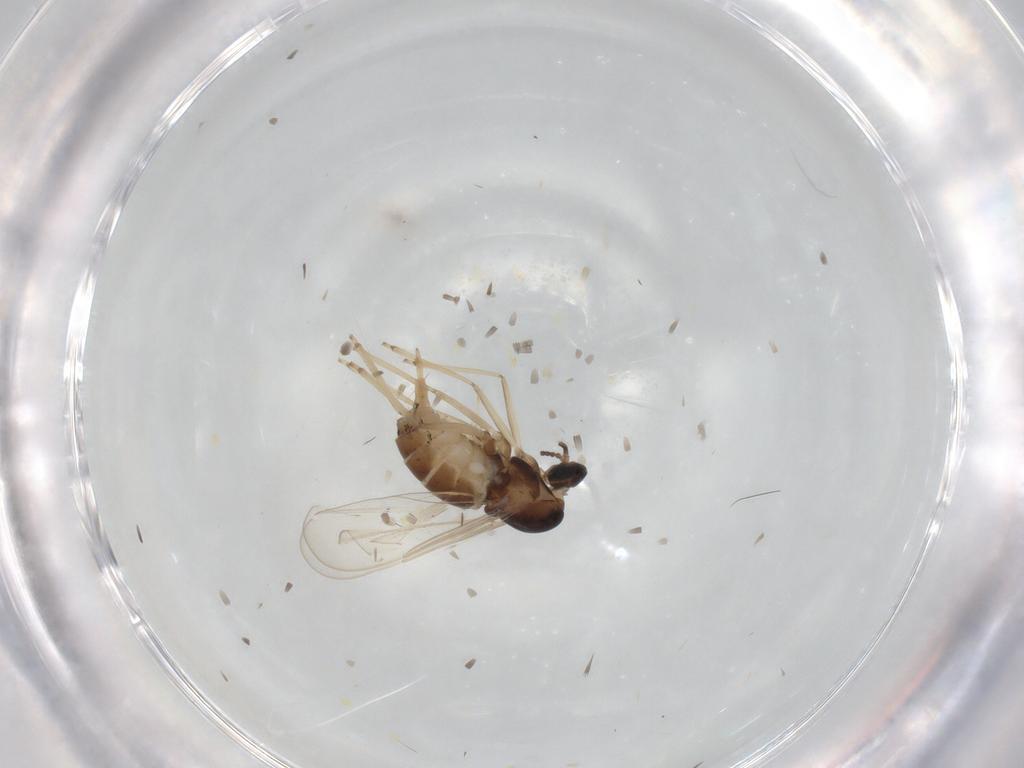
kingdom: Animalia
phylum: Arthropoda
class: Insecta
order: Diptera
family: Cecidomyiidae
